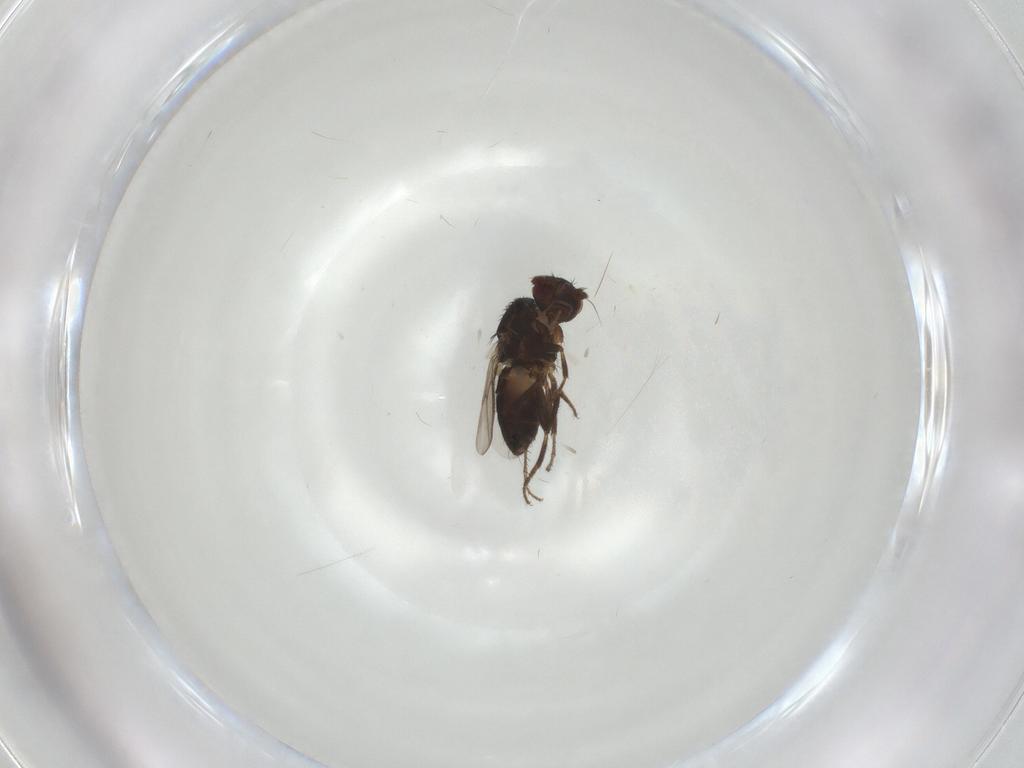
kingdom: Animalia
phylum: Arthropoda
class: Insecta
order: Diptera
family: Sphaeroceridae
